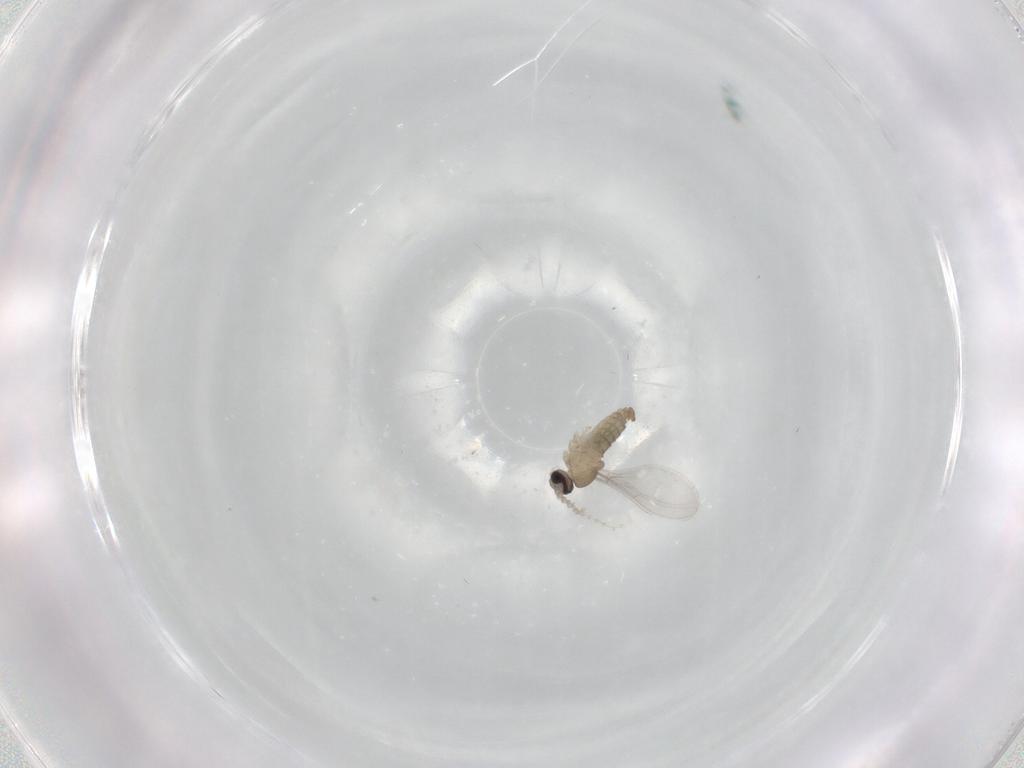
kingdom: Animalia
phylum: Arthropoda
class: Insecta
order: Diptera
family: Cecidomyiidae
